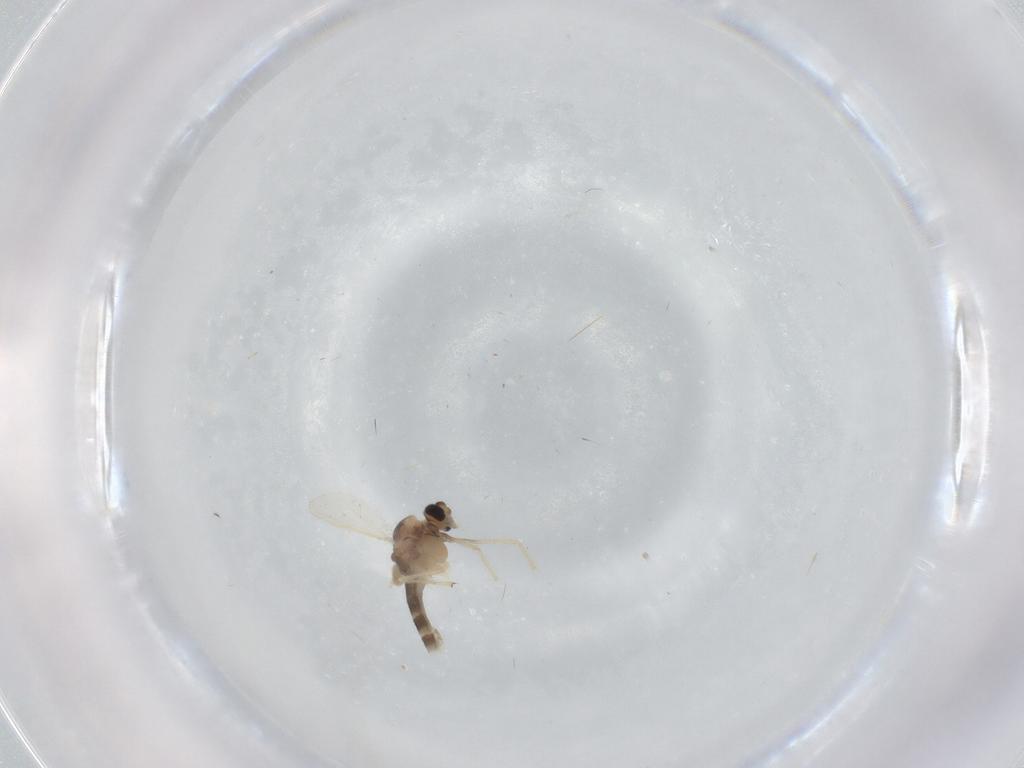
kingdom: Animalia
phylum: Arthropoda
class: Insecta
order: Diptera
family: Chironomidae
